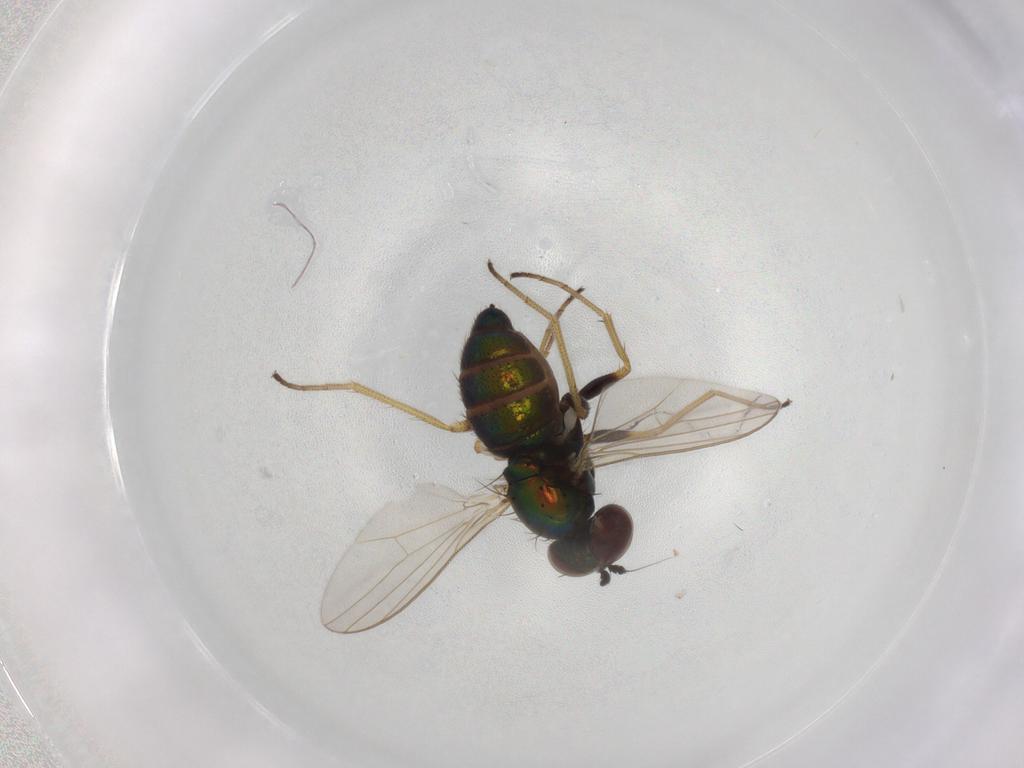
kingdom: Animalia
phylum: Arthropoda
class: Insecta
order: Diptera
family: Dolichopodidae
